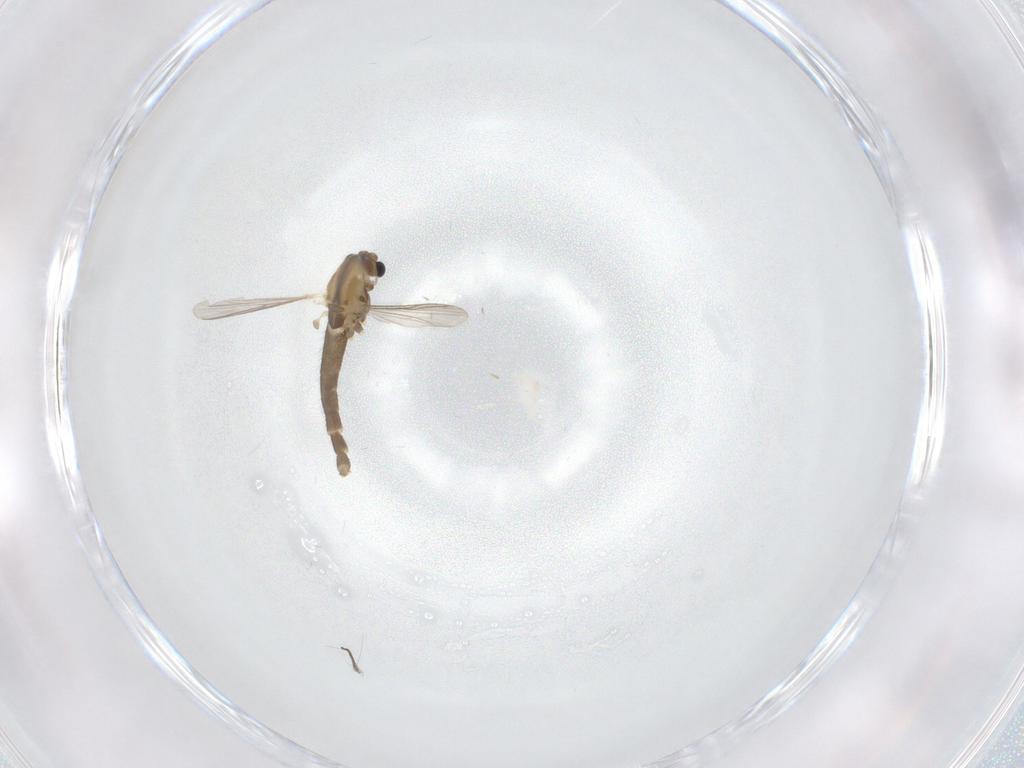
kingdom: Animalia
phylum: Arthropoda
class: Insecta
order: Diptera
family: Chironomidae
